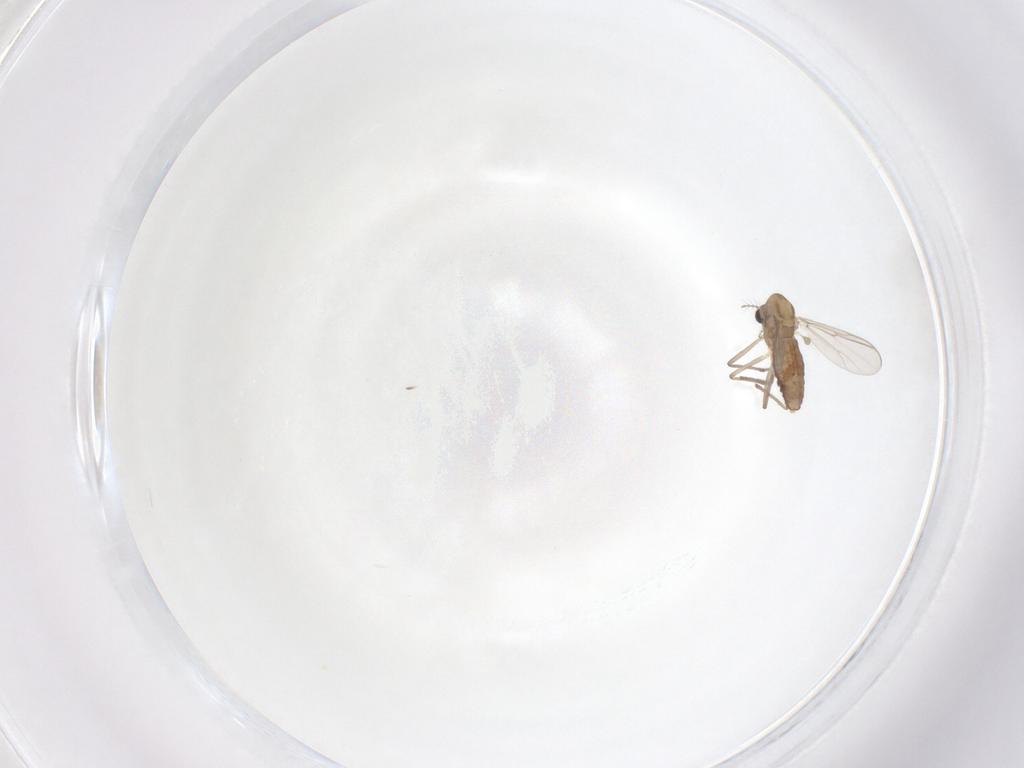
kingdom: Animalia
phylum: Arthropoda
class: Insecta
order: Diptera
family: Chironomidae
